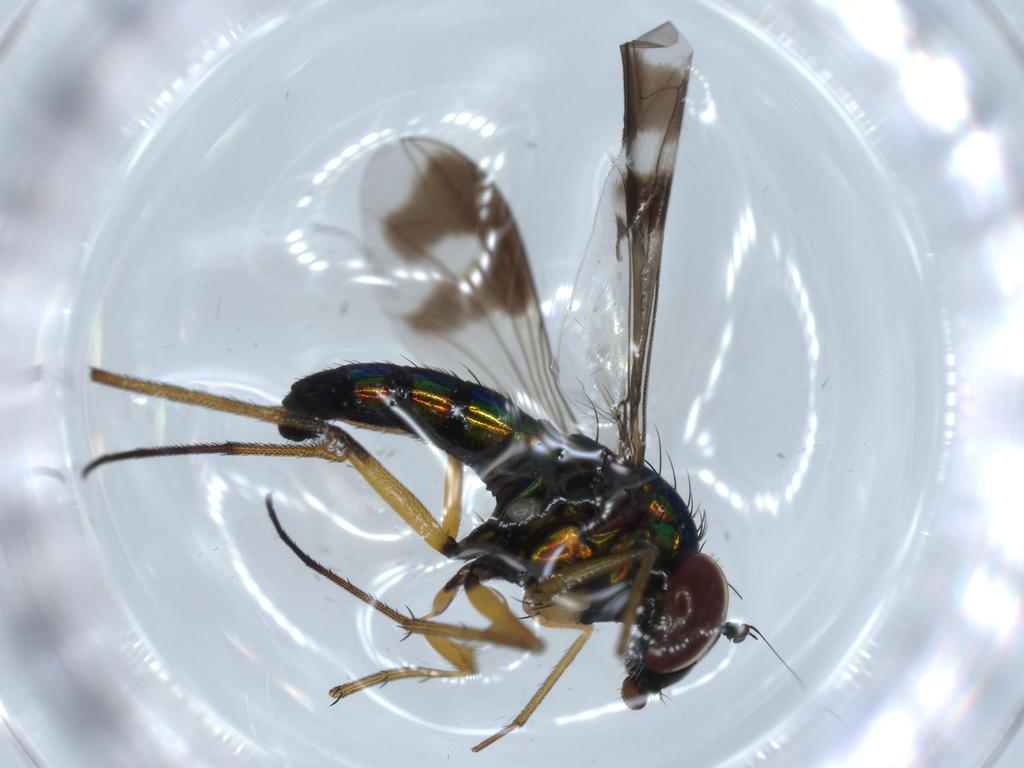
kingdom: Animalia
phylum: Arthropoda
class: Insecta
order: Diptera
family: Dolichopodidae
